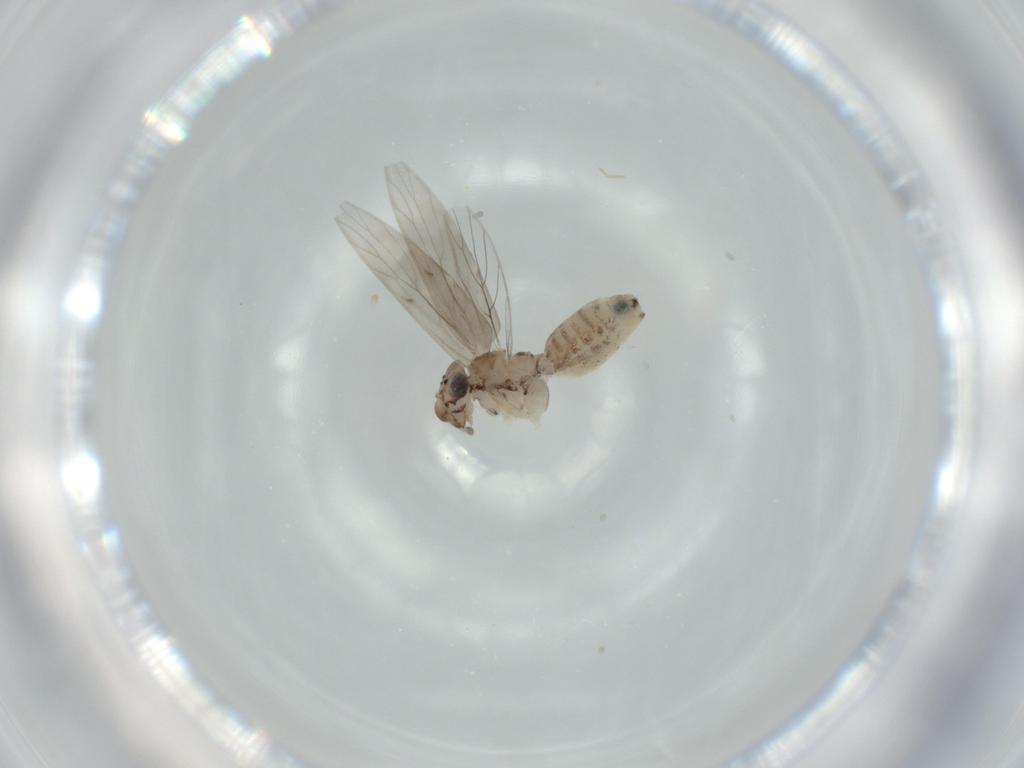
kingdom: Animalia
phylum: Arthropoda
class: Insecta
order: Psocodea
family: Lepidopsocidae
